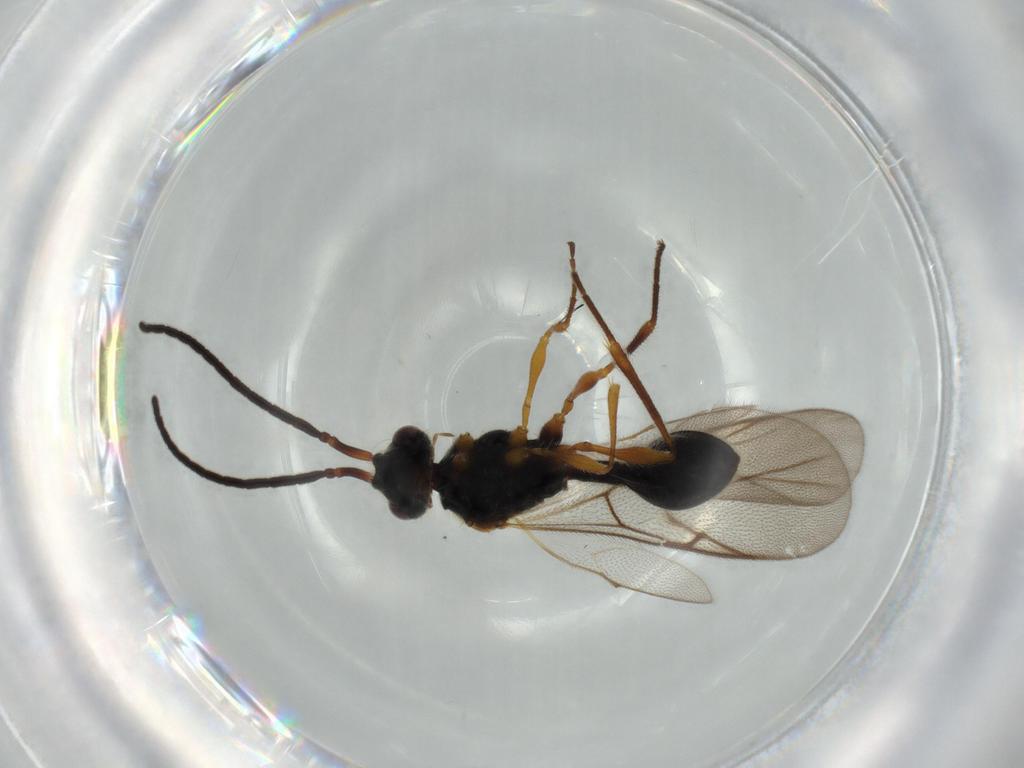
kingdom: Animalia
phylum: Arthropoda
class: Insecta
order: Hymenoptera
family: Diapriidae
